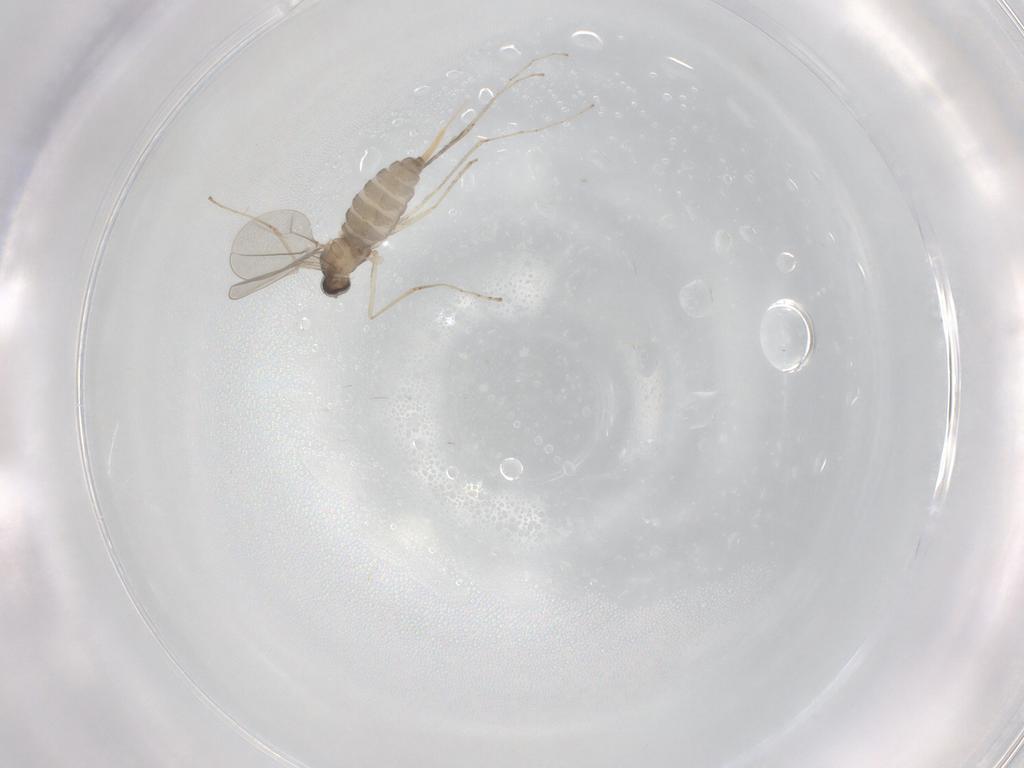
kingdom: Animalia
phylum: Arthropoda
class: Insecta
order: Diptera
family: Cecidomyiidae
